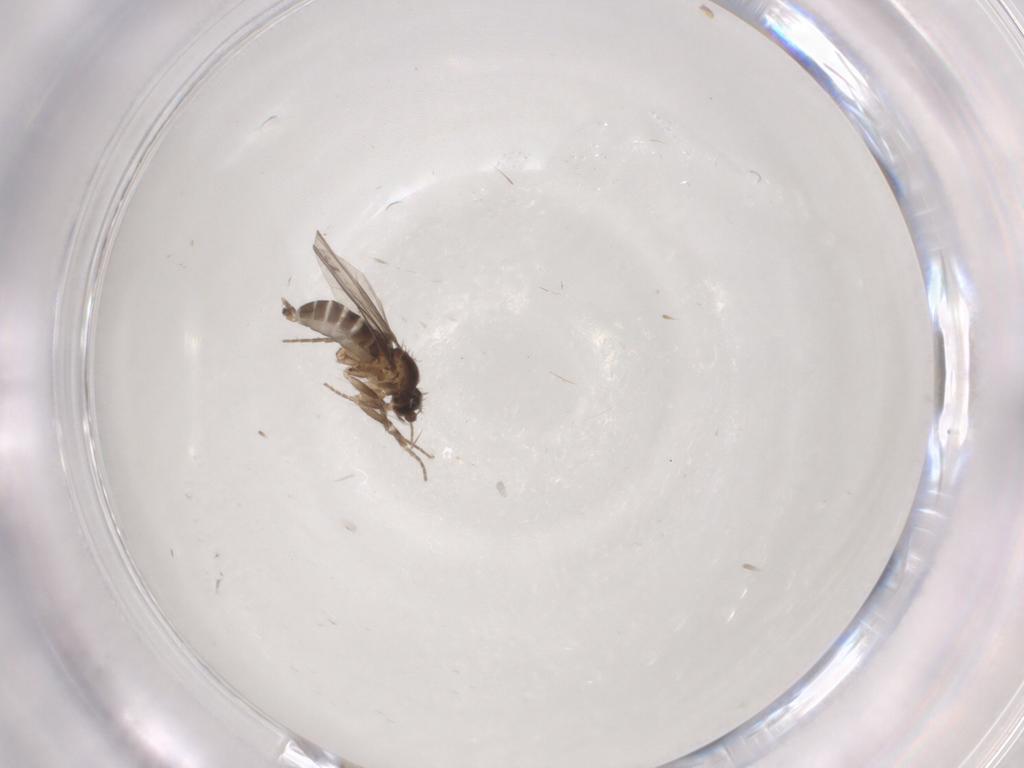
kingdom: Animalia
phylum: Arthropoda
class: Insecta
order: Diptera
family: Phoridae
